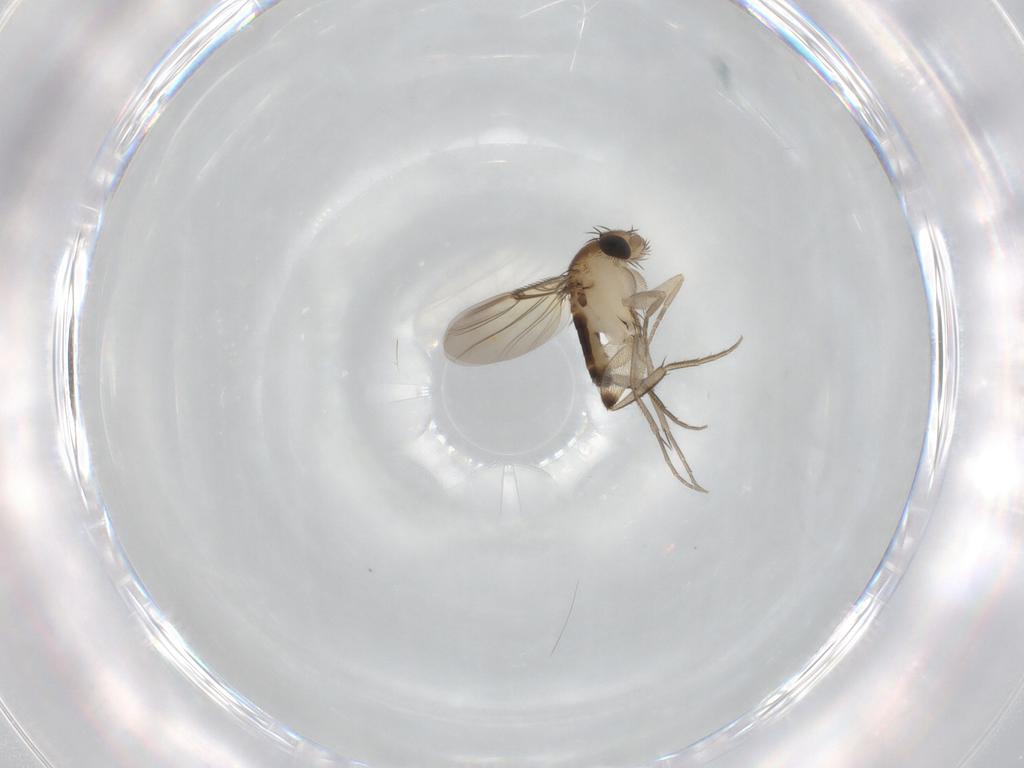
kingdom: Animalia
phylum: Arthropoda
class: Insecta
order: Diptera
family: Phoridae
